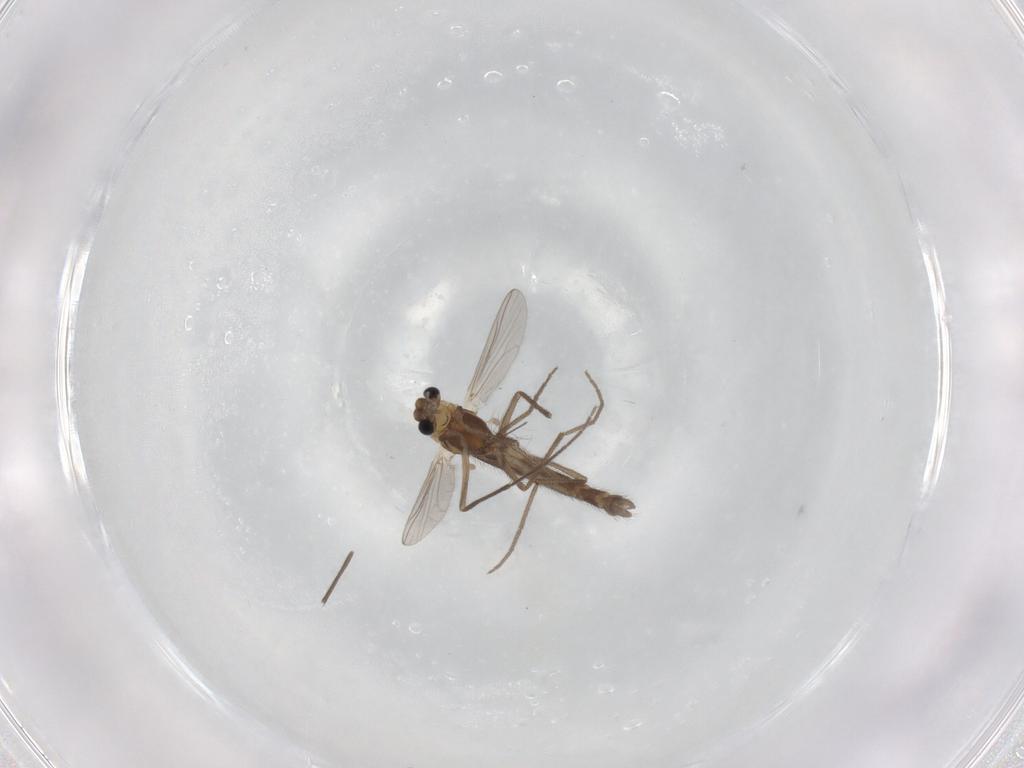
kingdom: Animalia
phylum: Arthropoda
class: Insecta
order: Diptera
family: Chironomidae
